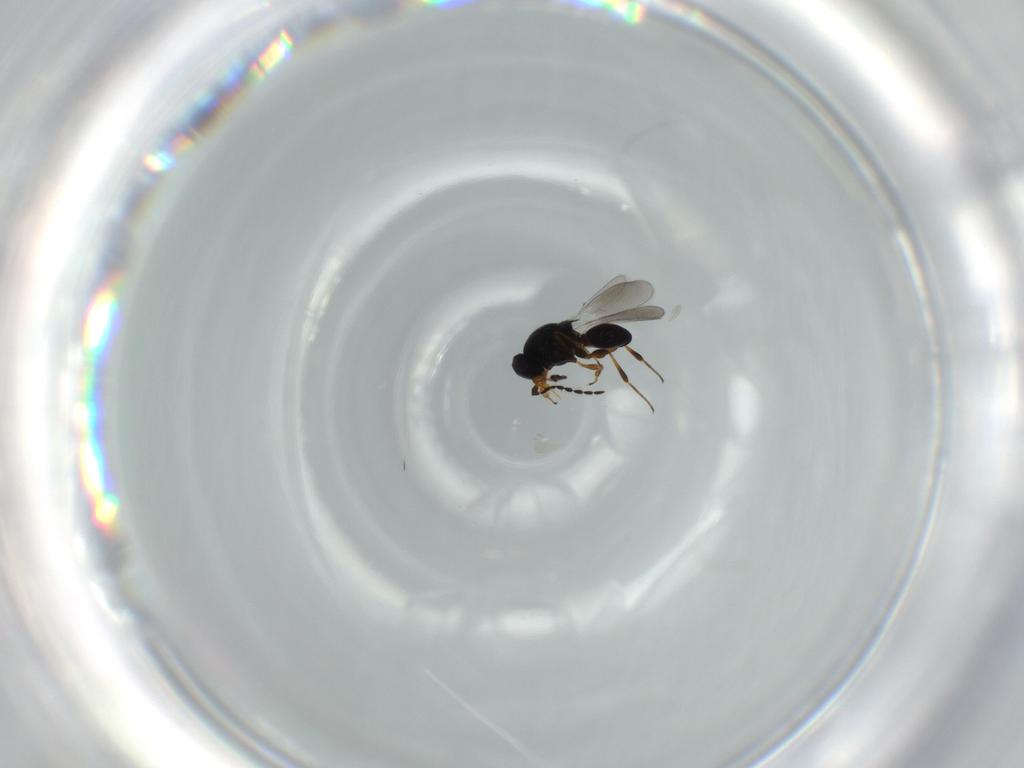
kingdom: Animalia
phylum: Arthropoda
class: Insecta
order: Hymenoptera
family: Platygastridae
